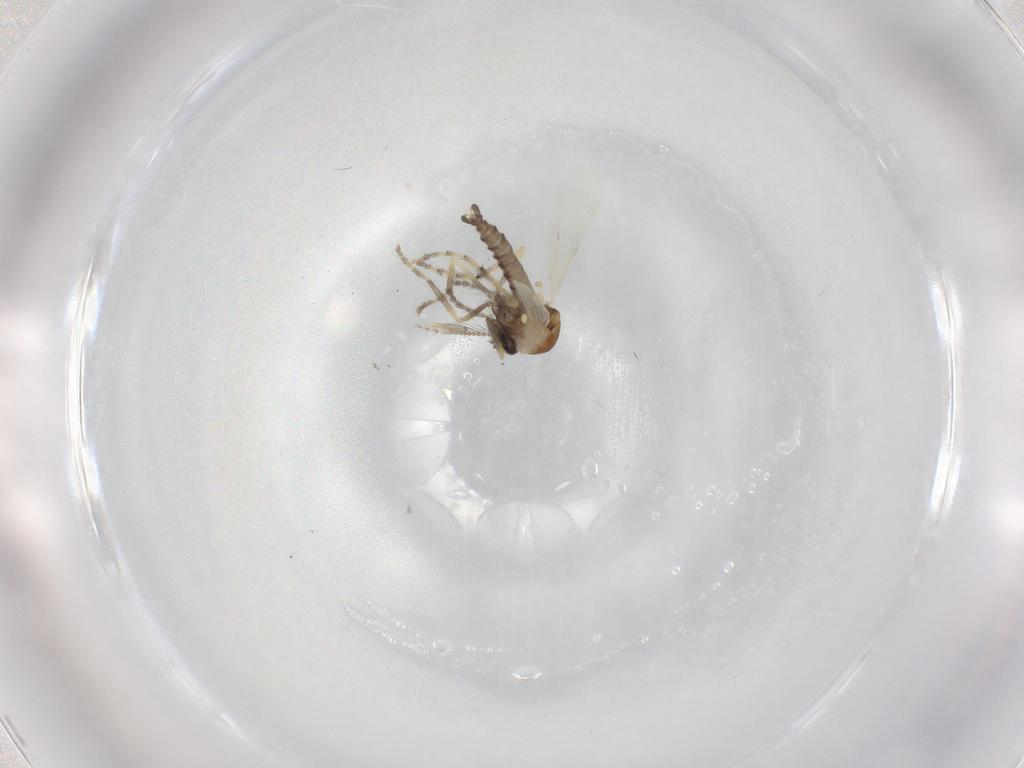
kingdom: Animalia
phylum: Arthropoda
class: Insecta
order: Diptera
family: Ceratopogonidae
